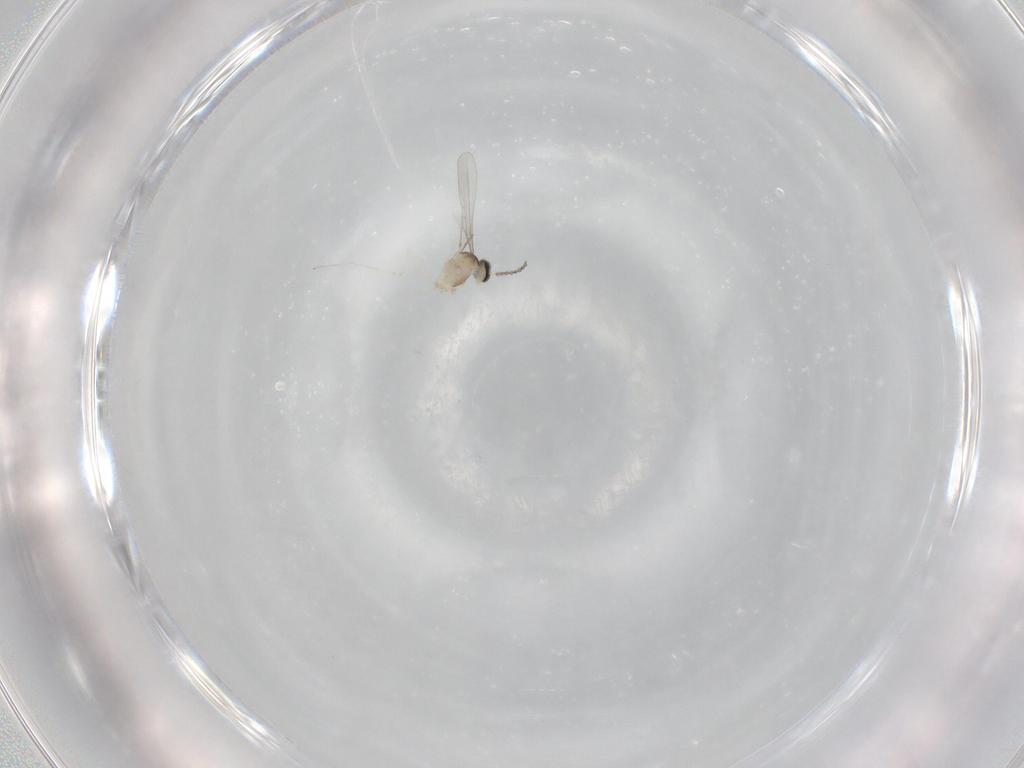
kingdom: Animalia
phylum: Arthropoda
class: Insecta
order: Diptera
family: Cecidomyiidae
